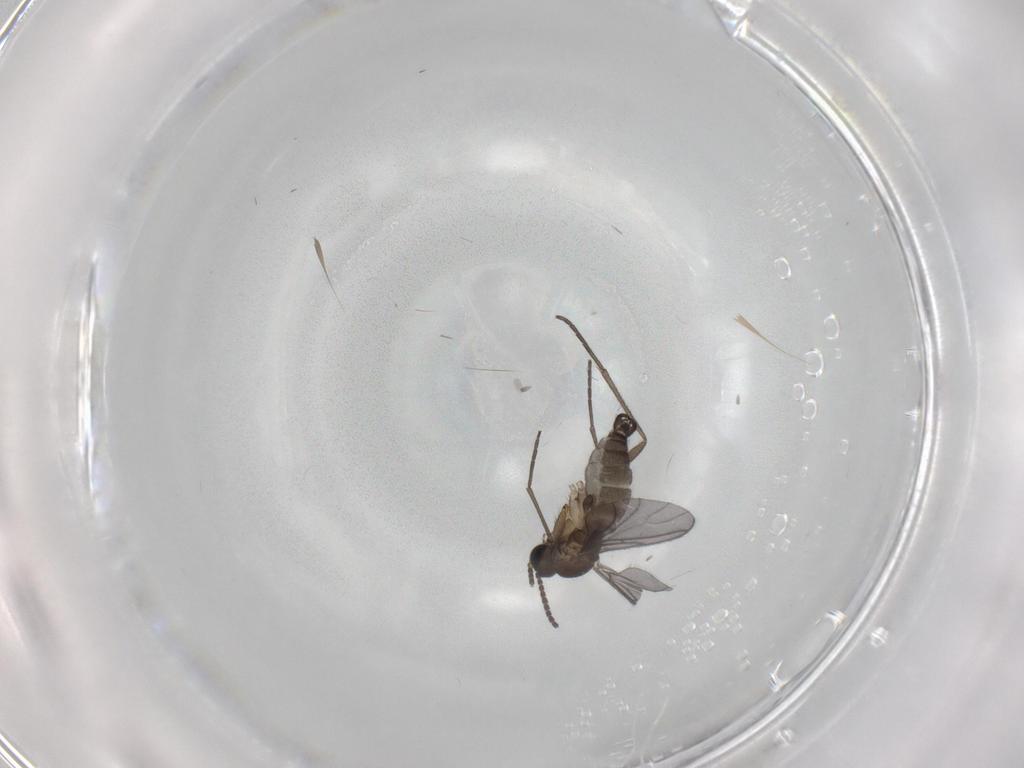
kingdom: Animalia
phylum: Arthropoda
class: Insecta
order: Diptera
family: Sciaridae
